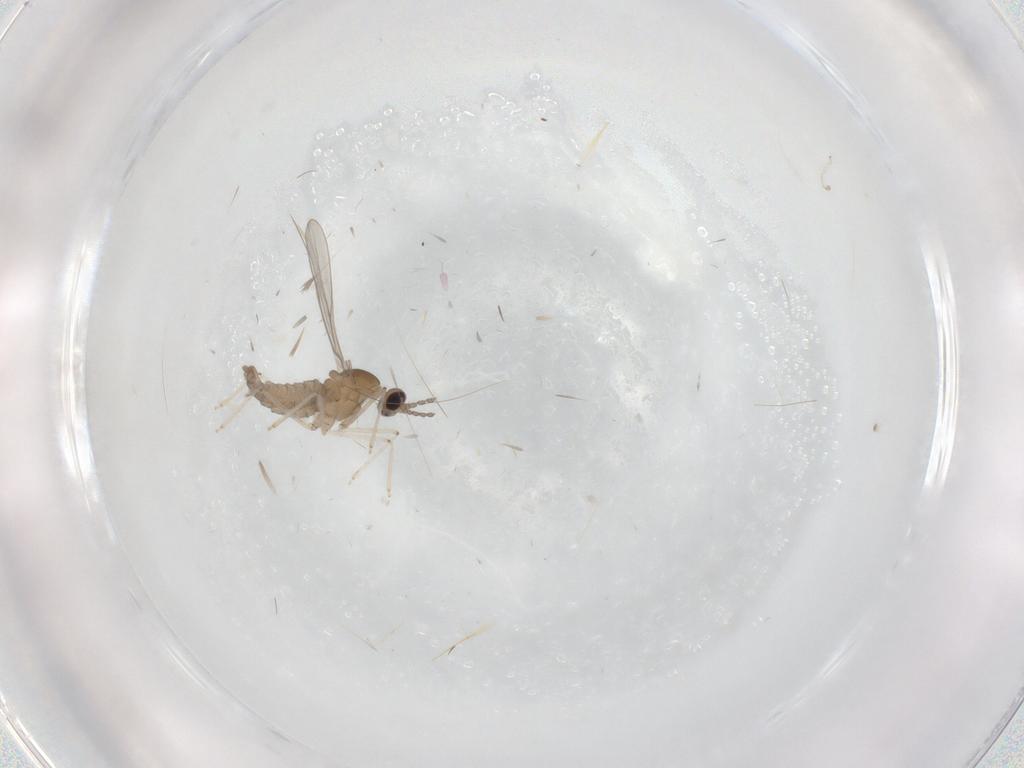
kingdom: Animalia
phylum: Arthropoda
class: Insecta
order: Diptera
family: Cecidomyiidae
